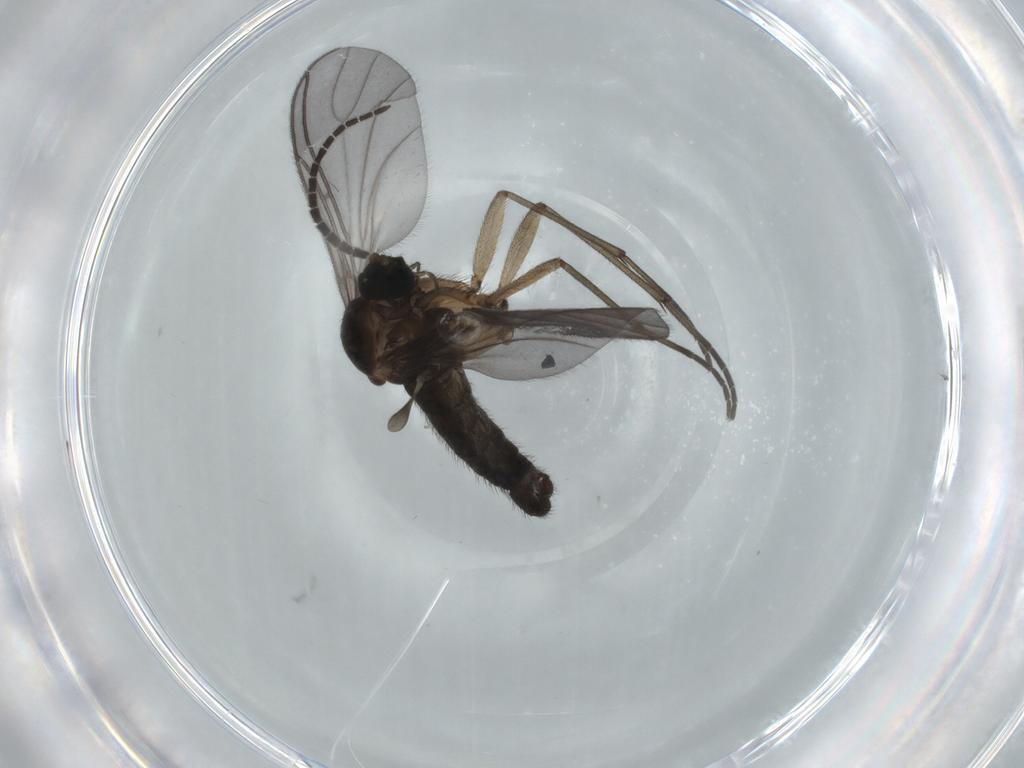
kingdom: Animalia
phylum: Arthropoda
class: Insecta
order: Diptera
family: Sciaridae
